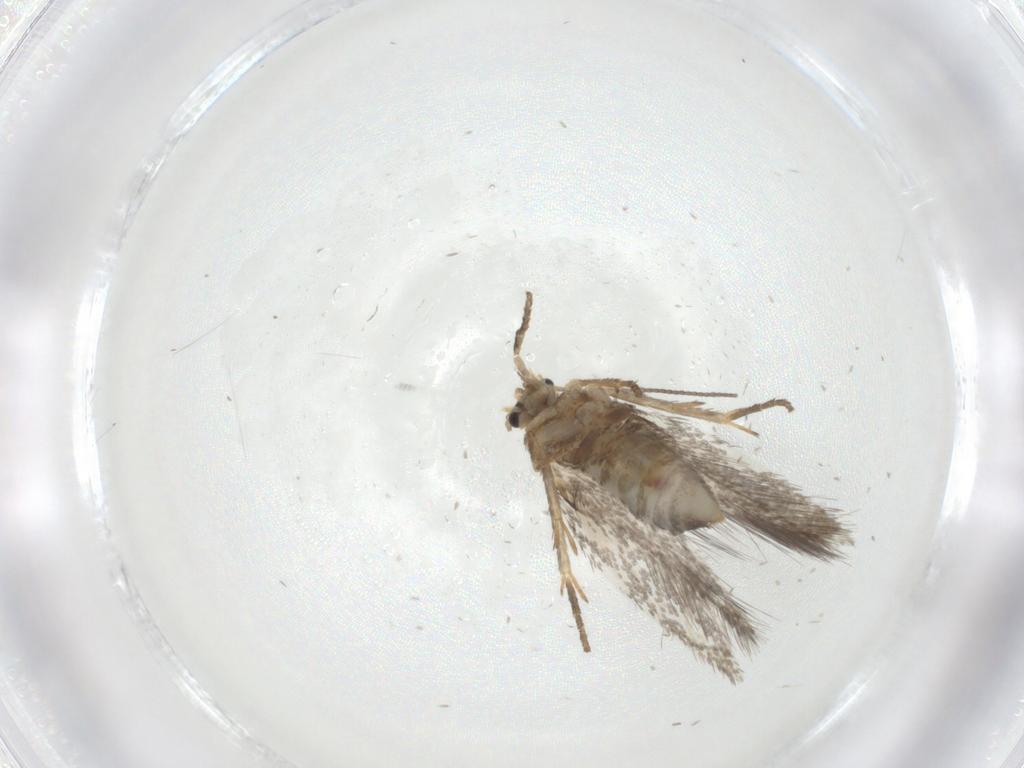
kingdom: Animalia
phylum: Arthropoda
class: Insecta
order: Lepidoptera
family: Nepticulidae
